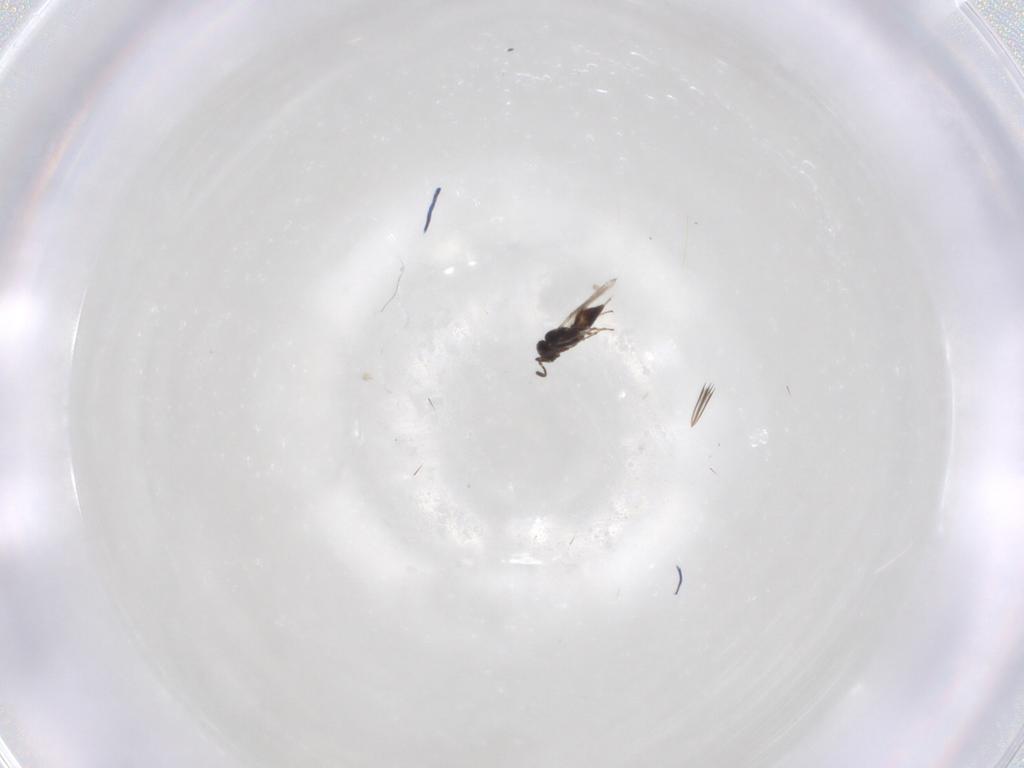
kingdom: Animalia
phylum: Arthropoda
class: Insecta
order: Hymenoptera
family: Scelionidae
